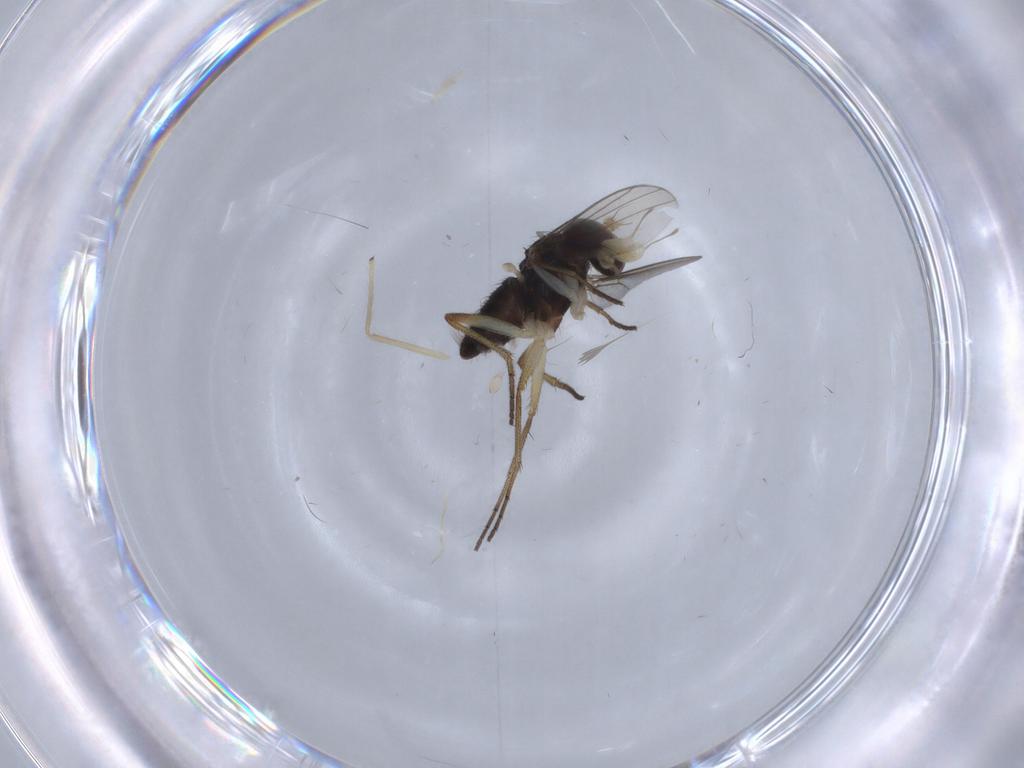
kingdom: Animalia
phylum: Arthropoda
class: Insecta
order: Diptera
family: Dolichopodidae
